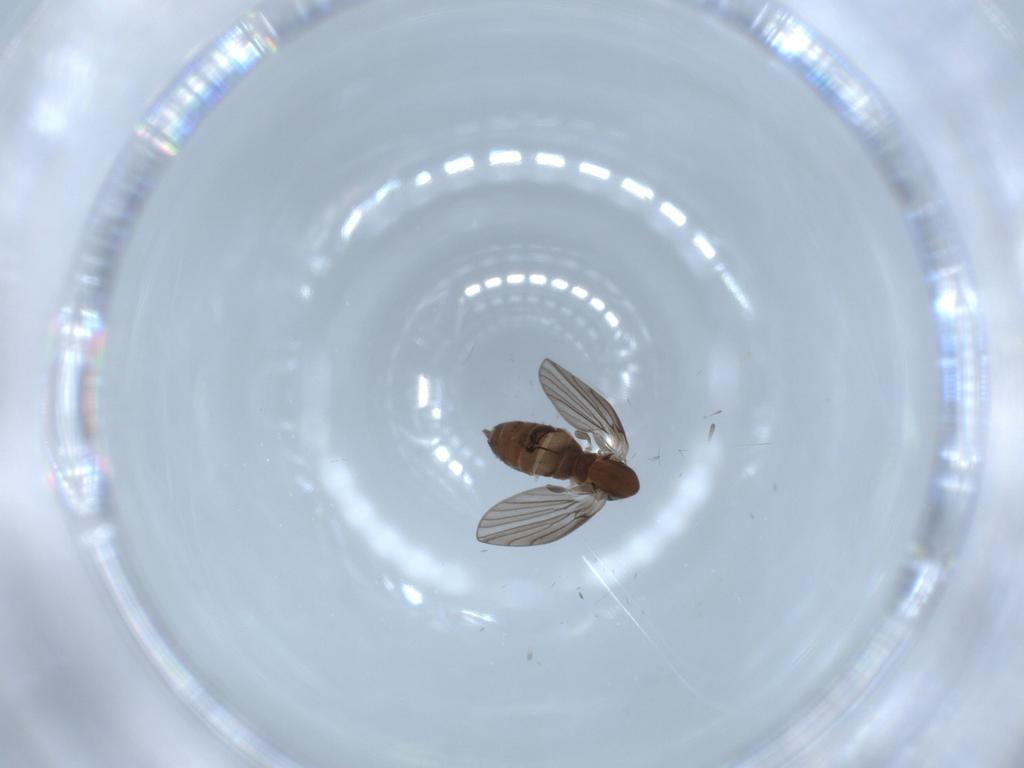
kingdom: Animalia
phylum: Arthropoda
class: Insecta
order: Diptera
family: Psychodidae
